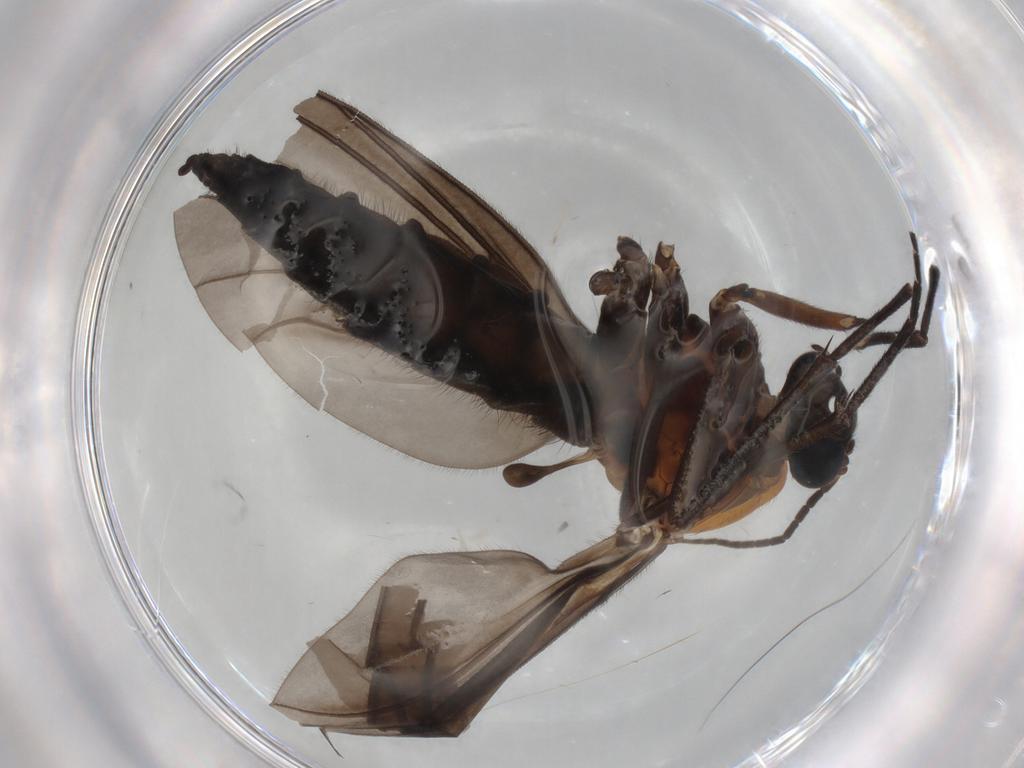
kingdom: Animalia
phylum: Arthropoda
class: Insecta
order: Diptera
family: Sciaridae
